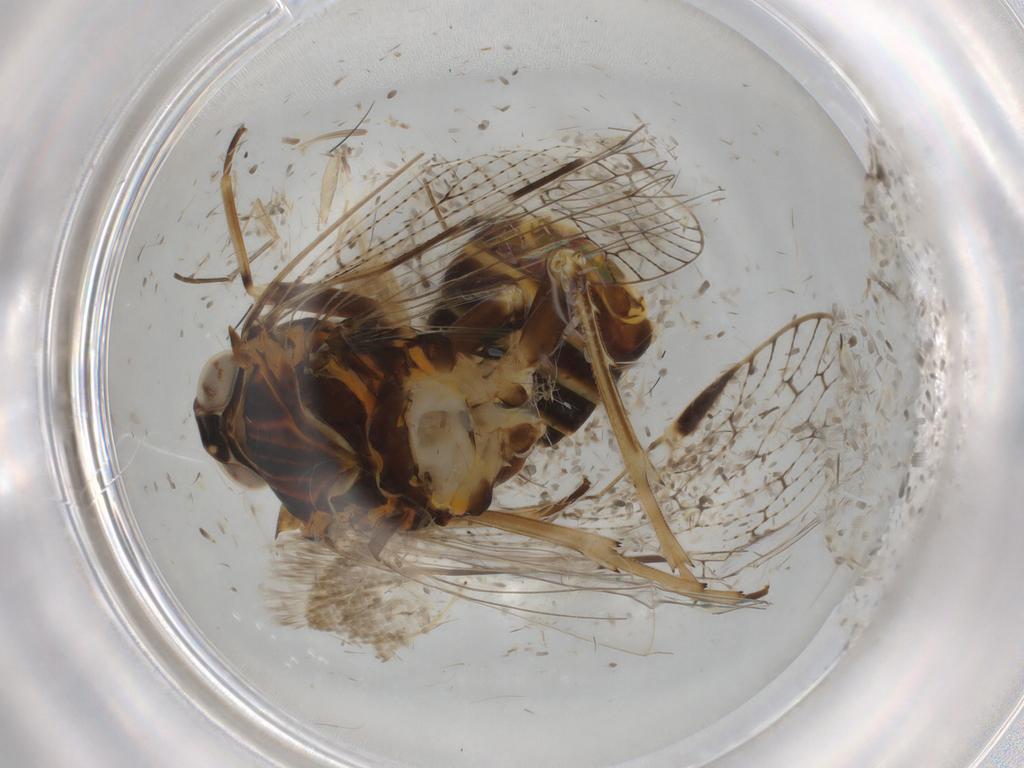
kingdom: Animalia
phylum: Arthropoda
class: Insecta
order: Hemiptera
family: Cixiidae
